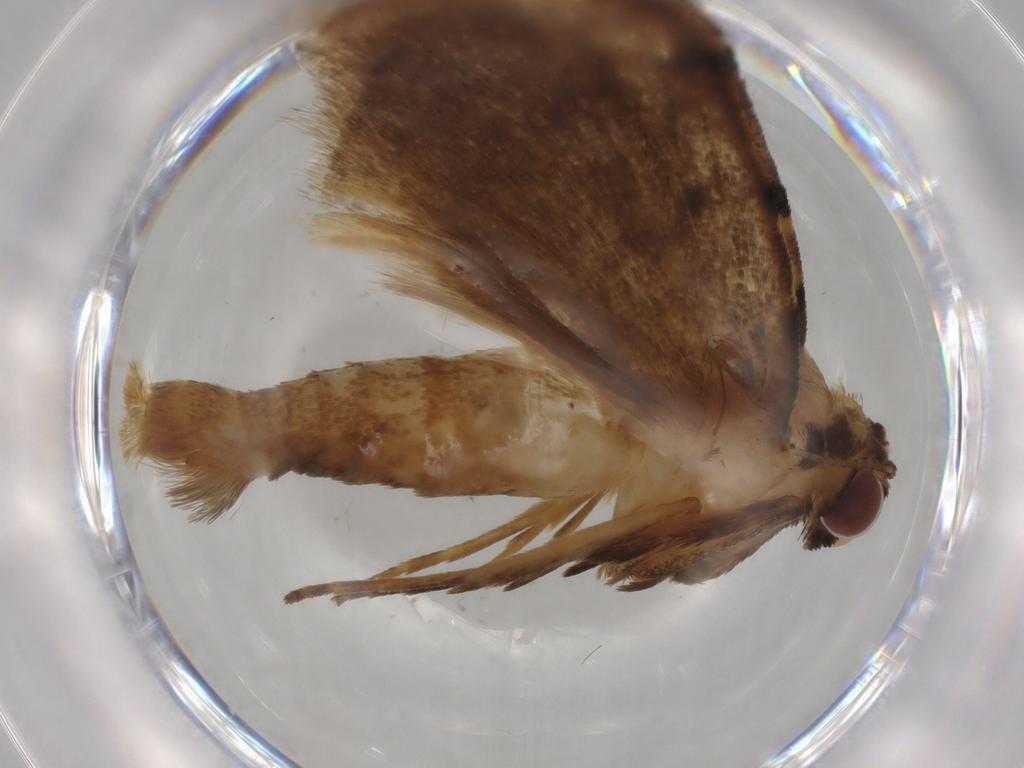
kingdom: Animalia
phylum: Arthropoda
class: Insecta
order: Lepidoptera
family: Erebidae
